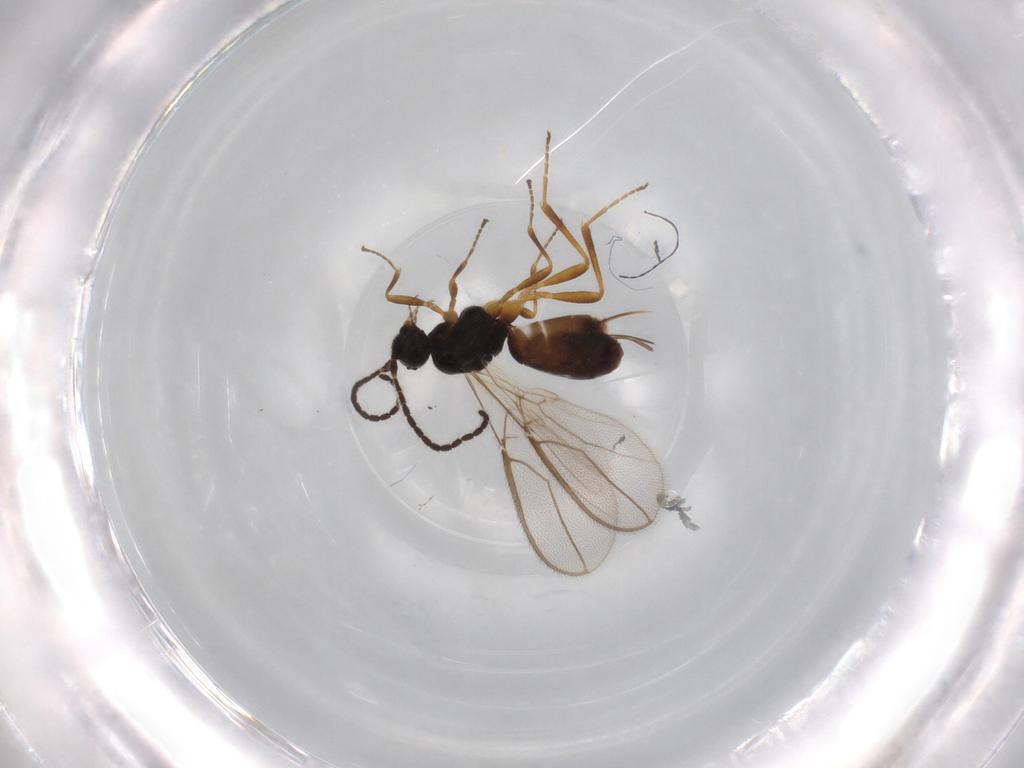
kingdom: Animalia
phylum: Arthropoda
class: Insecta
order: Hymenoptera
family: Braconidae
